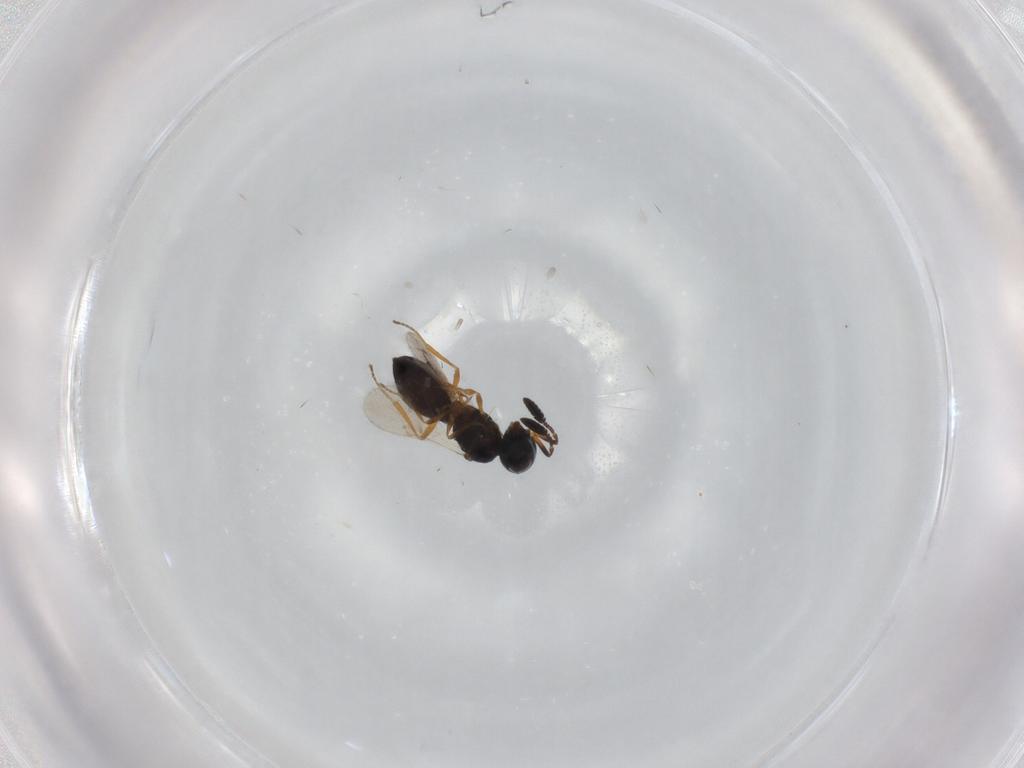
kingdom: Animalia
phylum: Arthropoda
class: Insecta
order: Hymenoptera
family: Scelionidae
